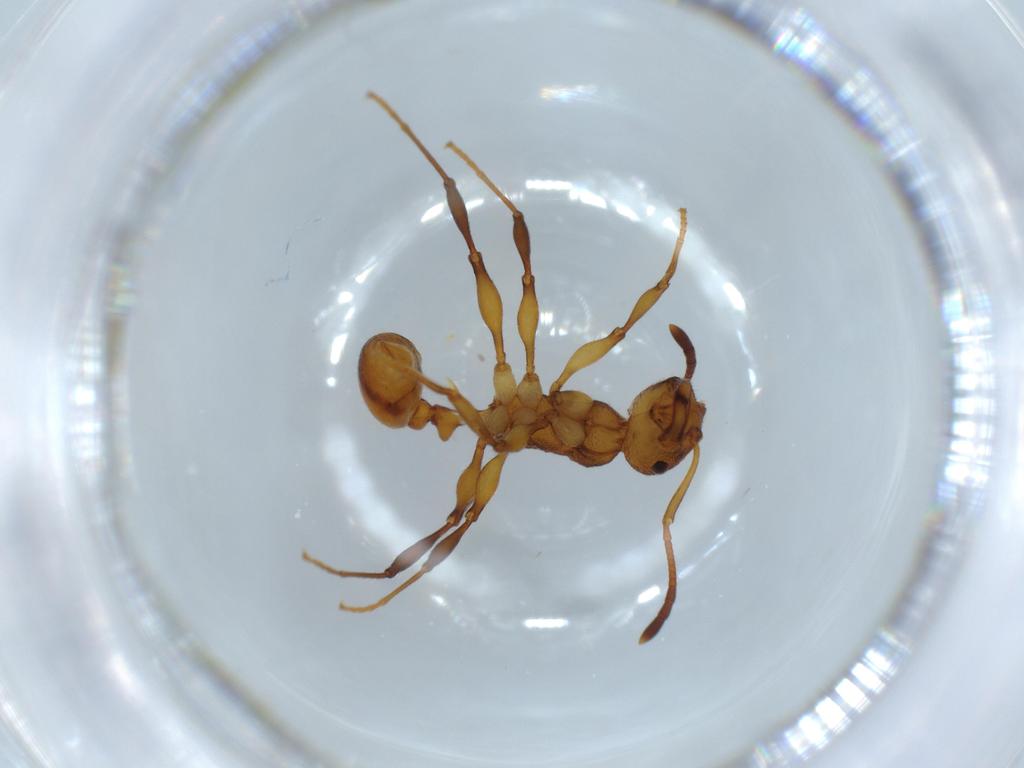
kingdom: Animalia
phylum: Arthropoda
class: Insecta
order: Hymenoptera
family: Formicidae
